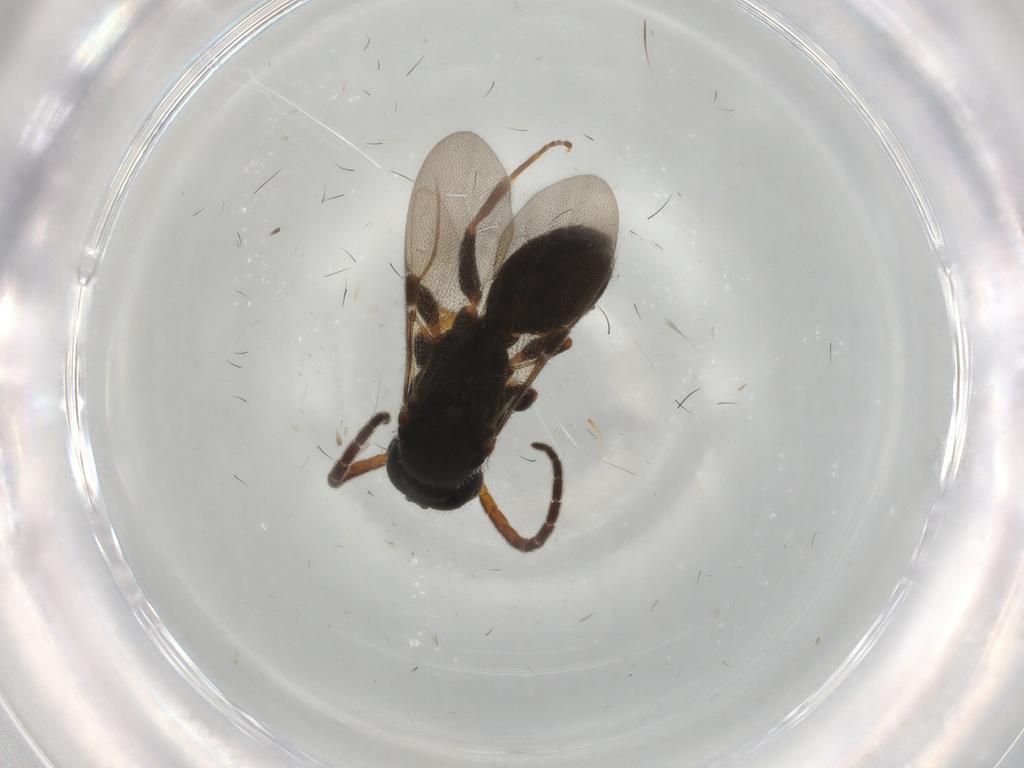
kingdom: Animalia
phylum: Arthropoda
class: Insecta
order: Hymenoptera
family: Bethylidae
